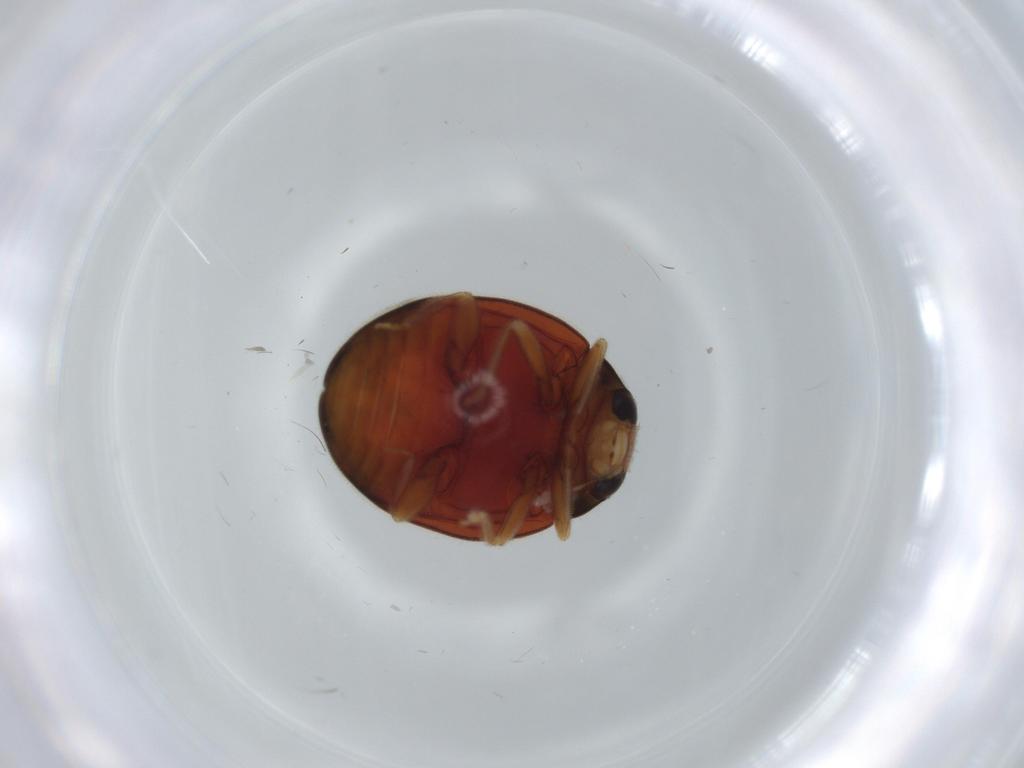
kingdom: Animalia
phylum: Arthropoda
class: Insecta
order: Coleoptera
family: Coccinellidae
